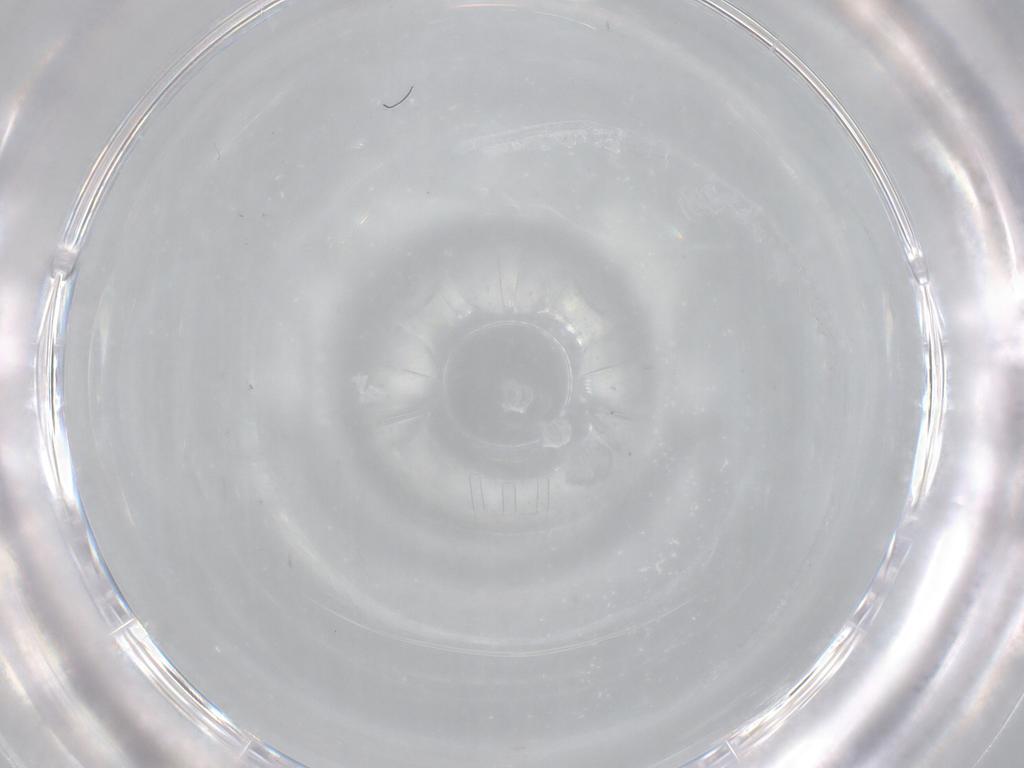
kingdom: Animalia
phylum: Arthropoda
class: Insecta
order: Diptera
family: Cecidomyiidae
